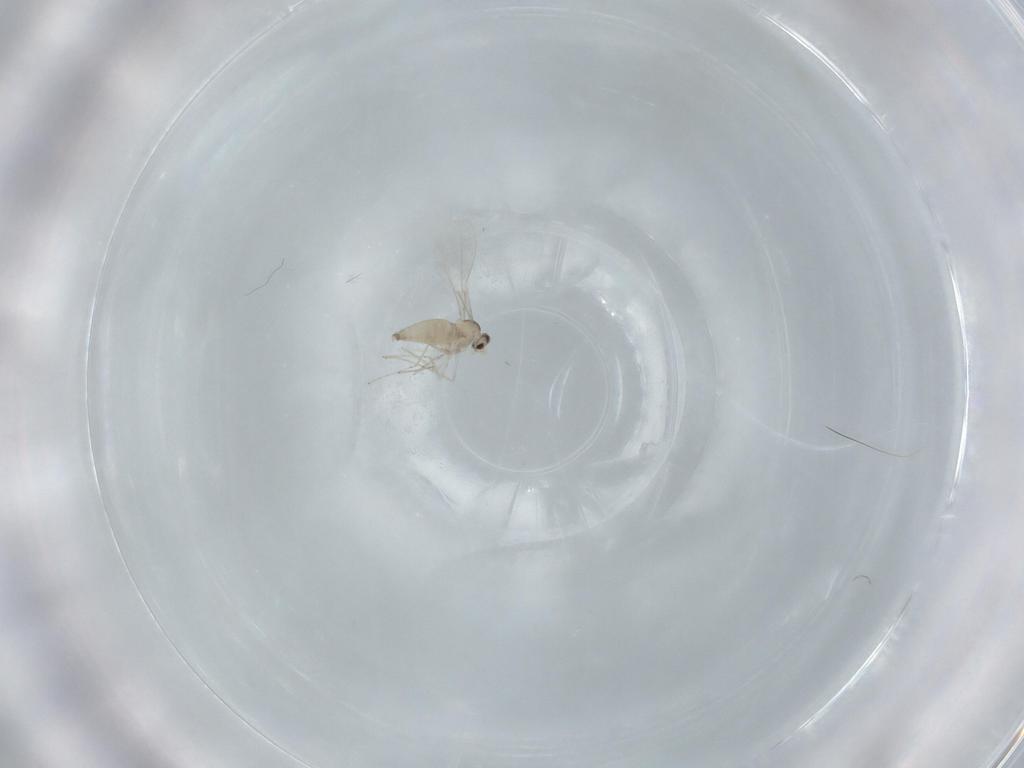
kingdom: Animalia
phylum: Arthropoda
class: Insecta
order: Diptera
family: Cecidomyiidae
